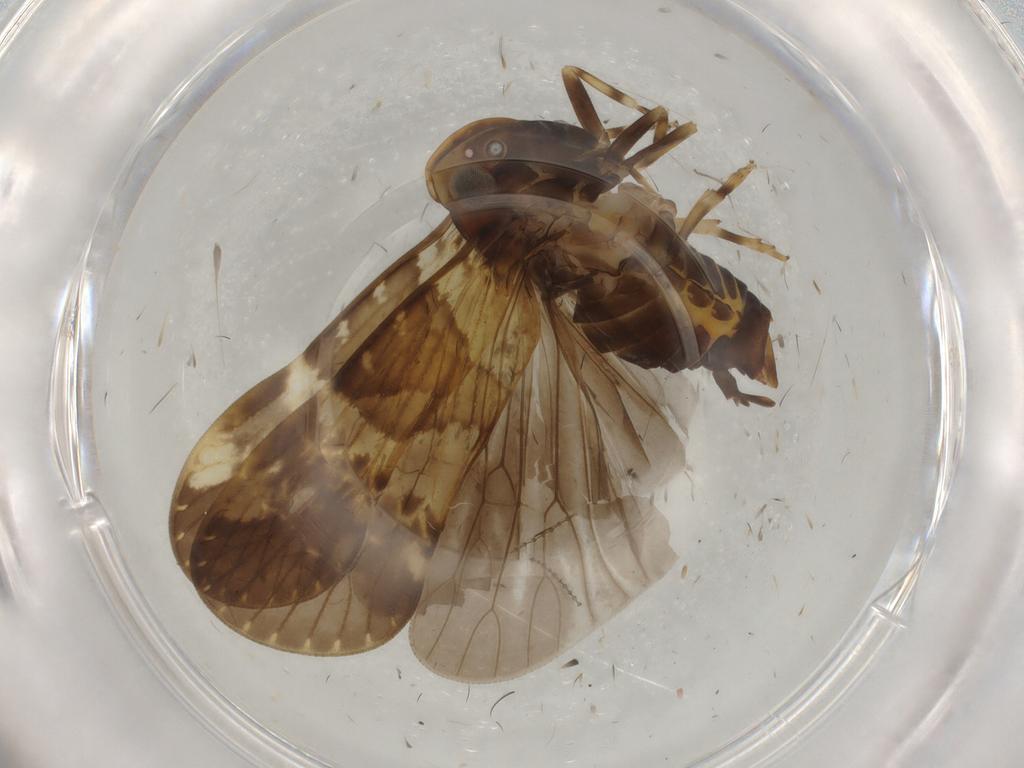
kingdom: Animalia
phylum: Arthropoda
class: Insecta
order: Hemiptera
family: Cixiidae
